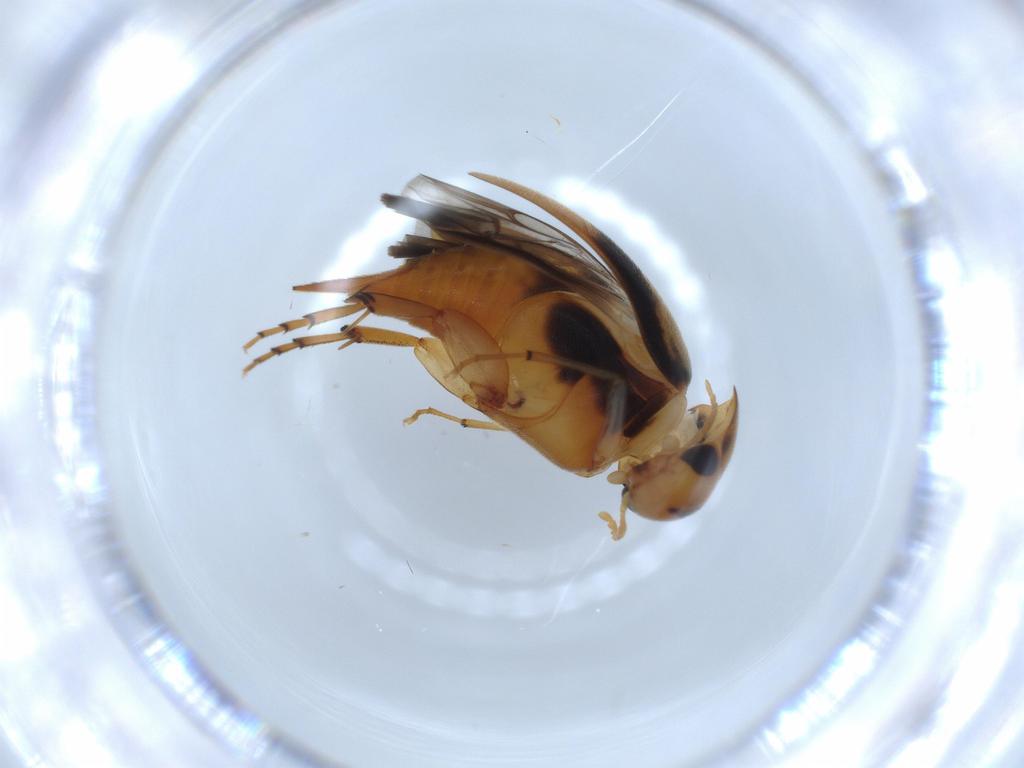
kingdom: Animalia
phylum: Arthropoda
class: Insecta
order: Coleoptera
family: Mordellidae
